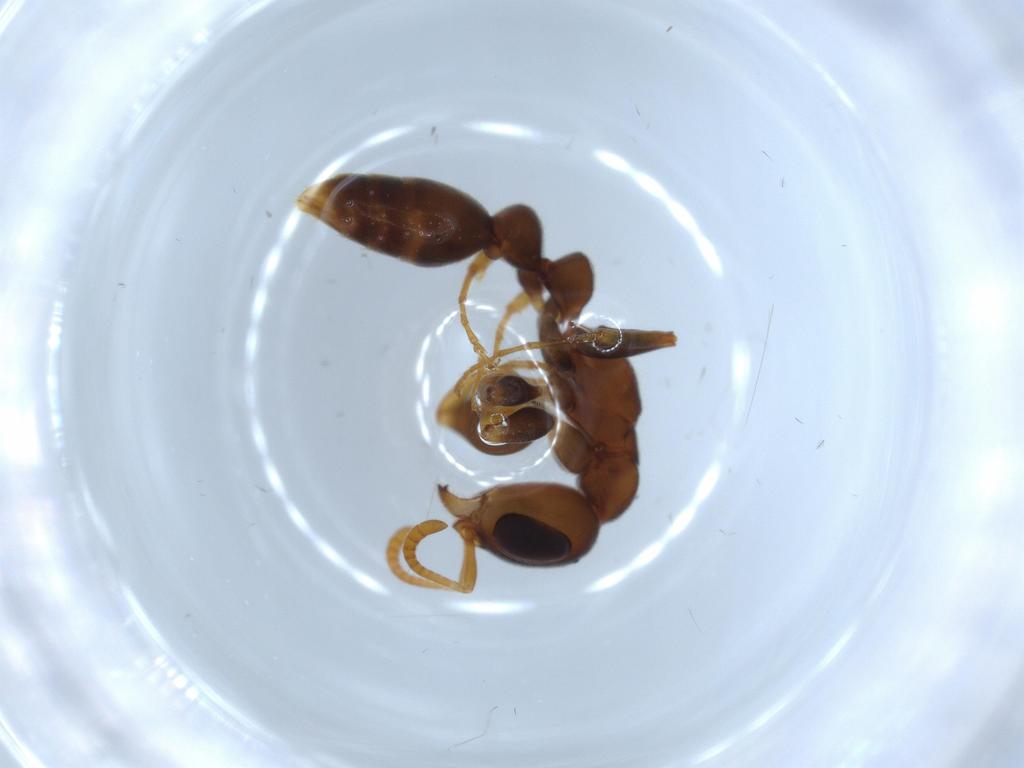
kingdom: Animalia
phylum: Arthropoda
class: Insecta
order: Hymenoptera
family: Formicidae
